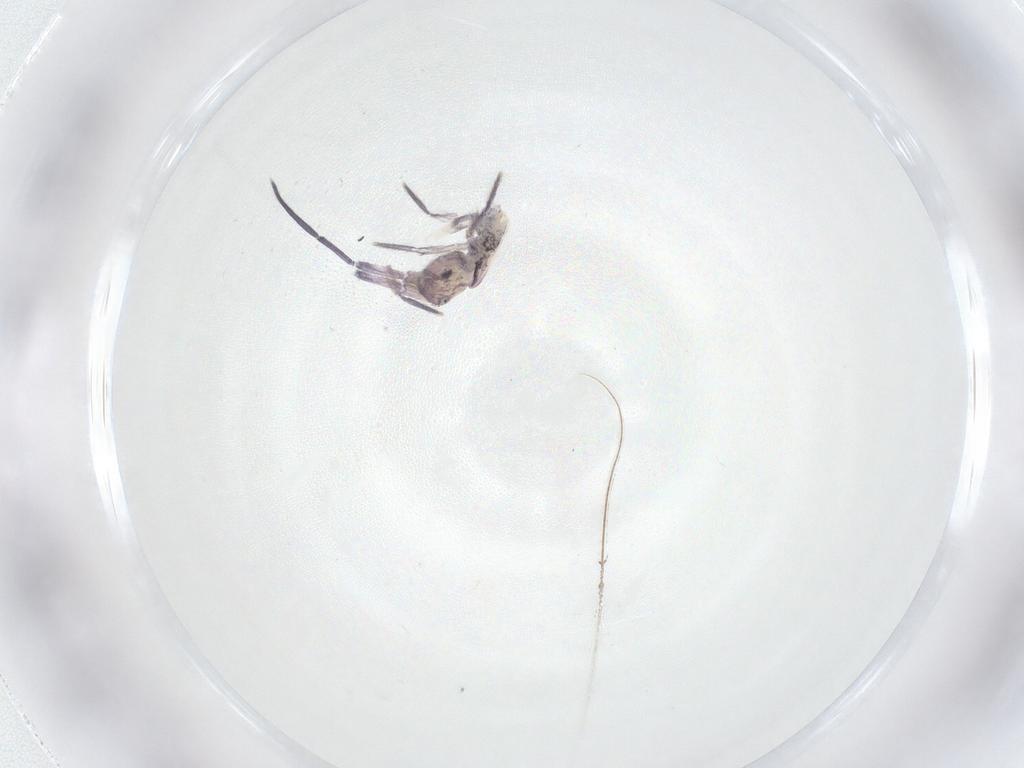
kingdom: Animalia
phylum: Arthropoda
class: Collembola
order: Entomobryomorpha
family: Entomobryidae
